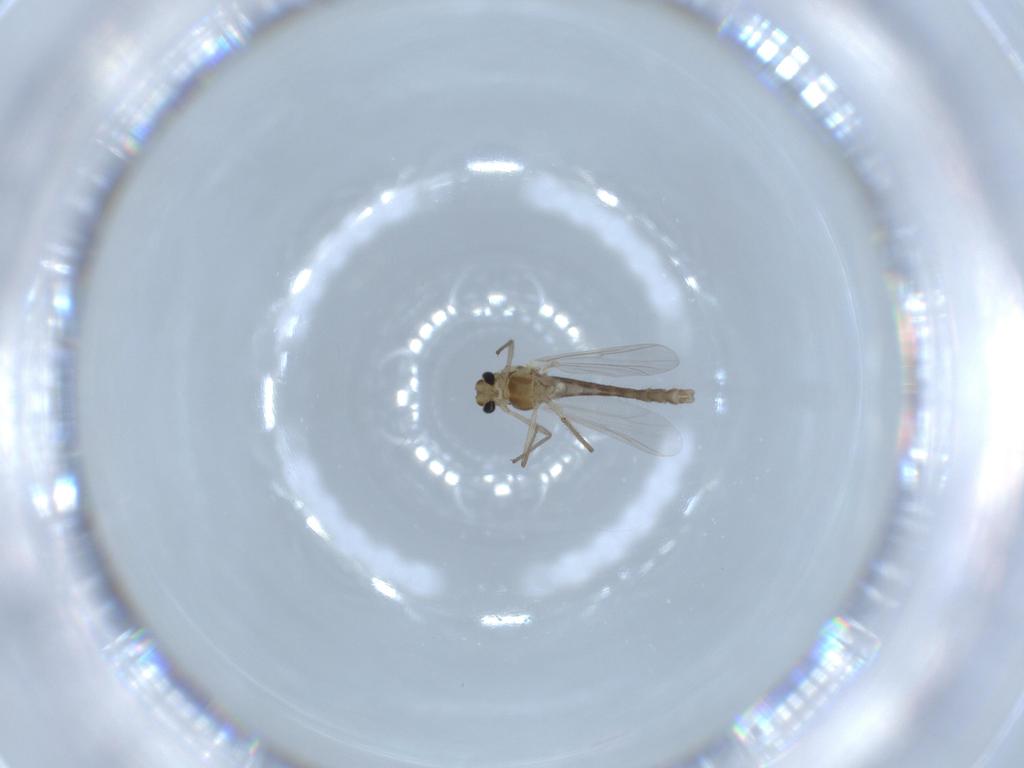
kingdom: Animalia
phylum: Arthropoda
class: Insecta
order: Diptera
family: Chironomidae
